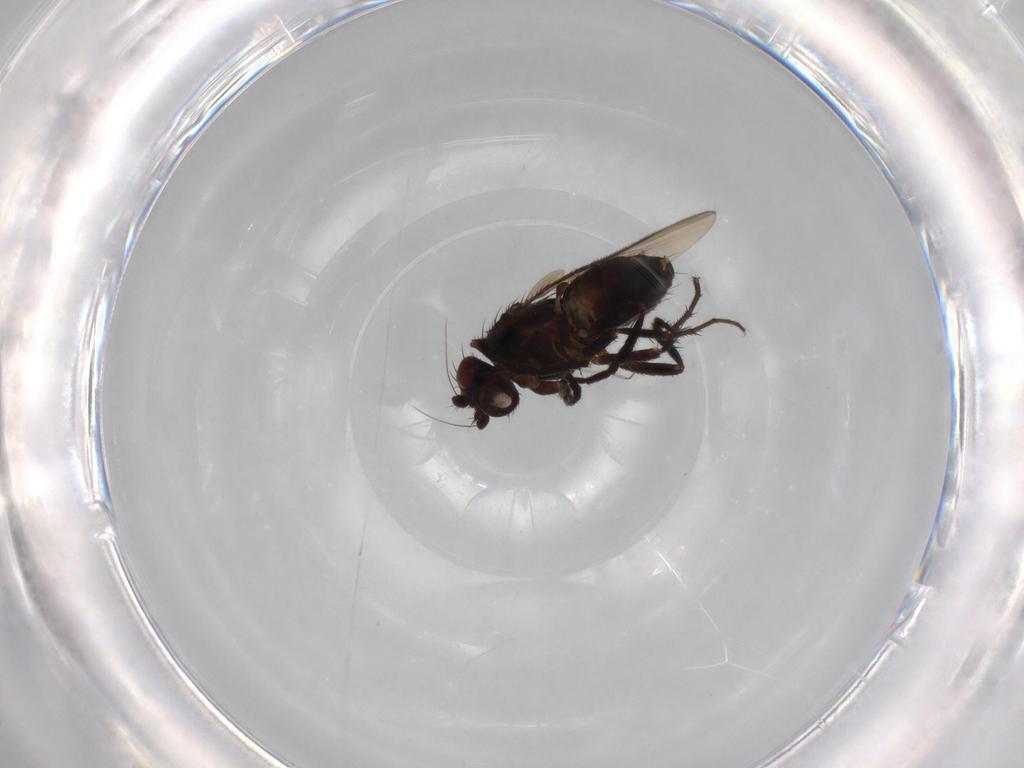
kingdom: Animalia
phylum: Arthropoda
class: Insecta
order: Diptera
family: Sphaeroceridae
